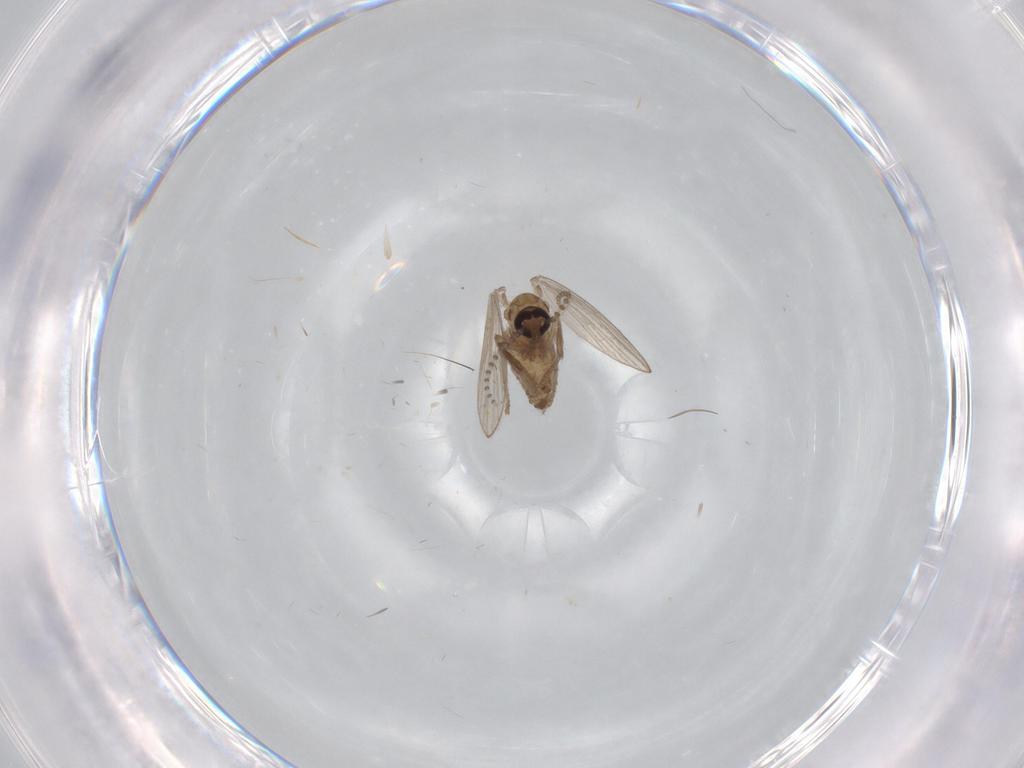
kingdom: Animalia
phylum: Arthropoda
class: Insecta
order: Diptera
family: Psychodidae
